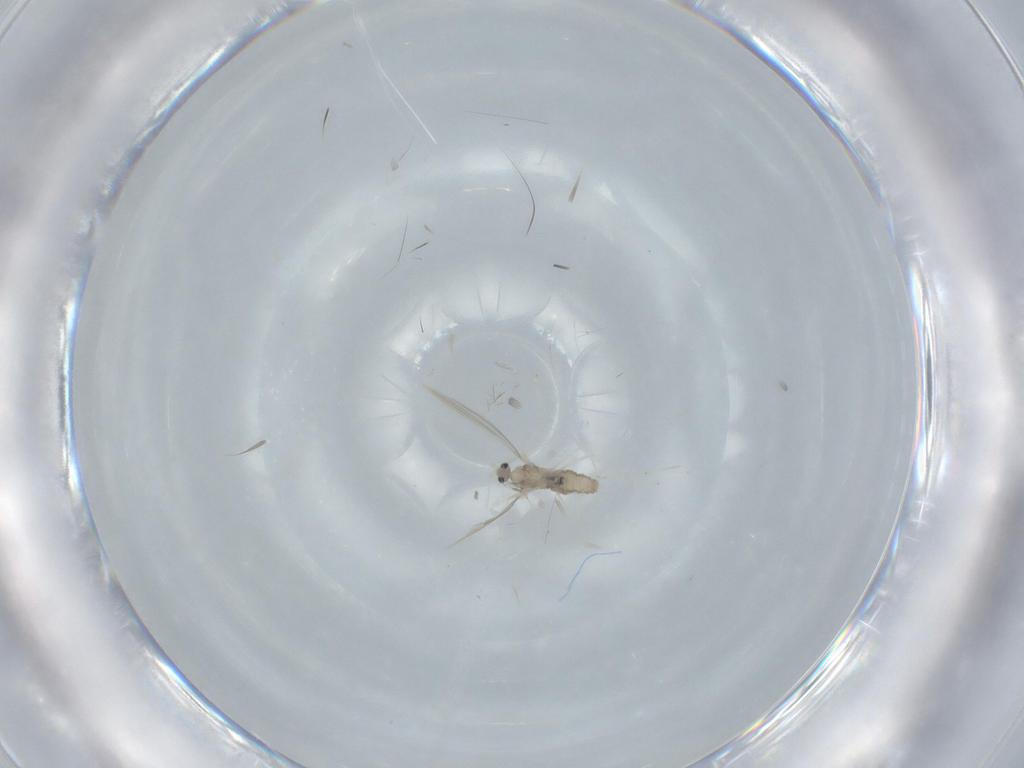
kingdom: Animalia
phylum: Arthropoda
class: Insecta
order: Diptera
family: Cecidomyiidae
